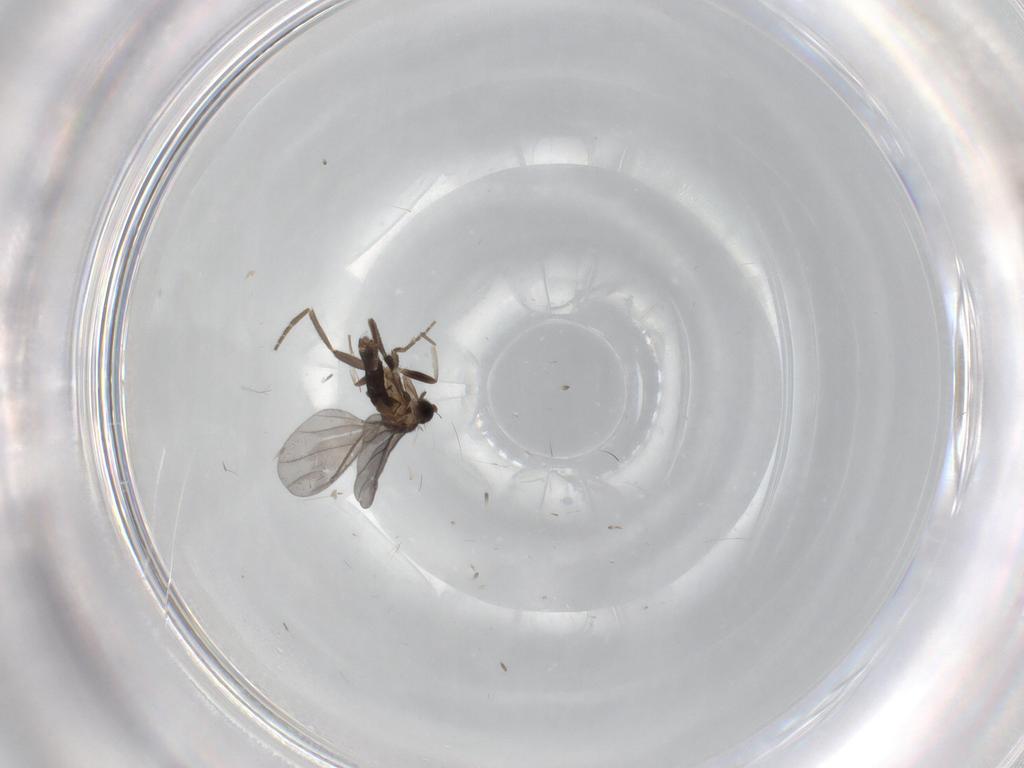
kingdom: Animalia
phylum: Arthropoda
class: Insecta
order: Diptera
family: Phoridae
